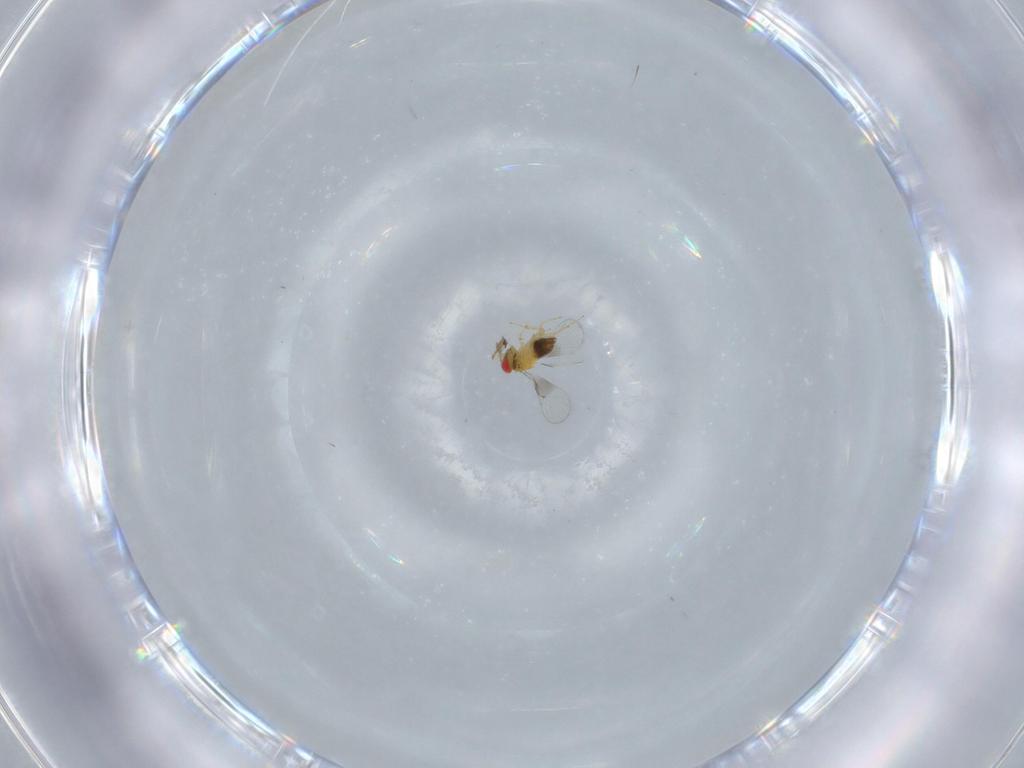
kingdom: Animalia
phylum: Arthropoda
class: Insecta
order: Hymenoptera
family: Trichogrammatidae
